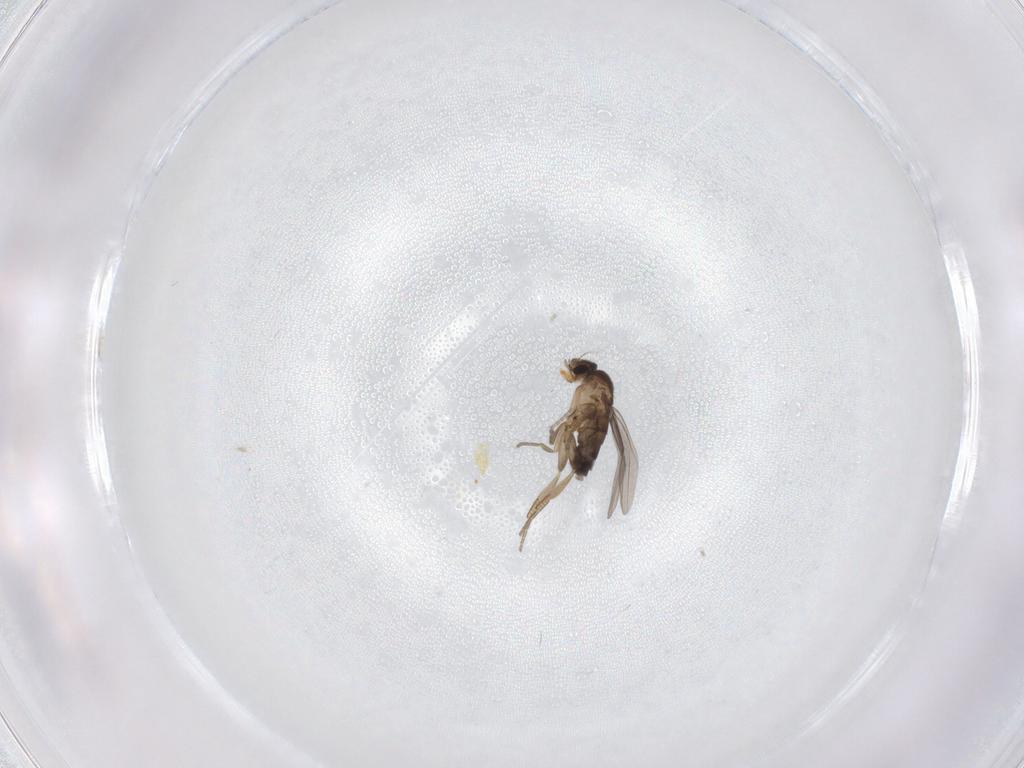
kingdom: Animalia
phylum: Arthropoda
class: Insecta
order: Diptera
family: Phoridae
